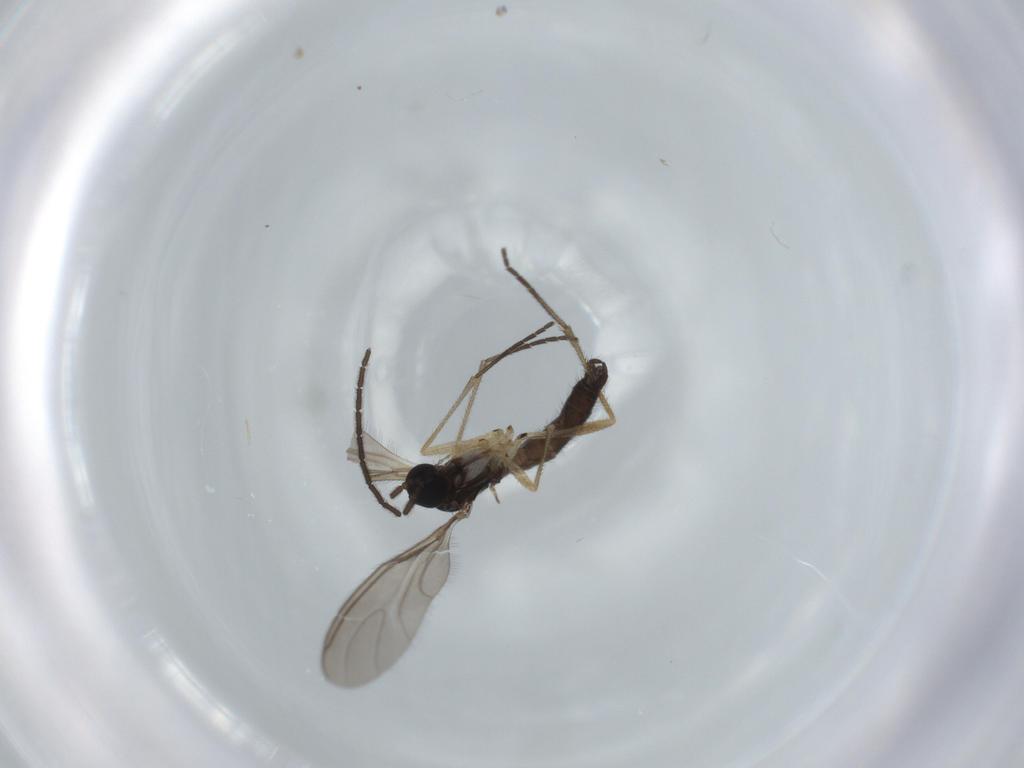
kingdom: Animalia
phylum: Arthropoda
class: Insecta
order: Diptera
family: Sciaridae
